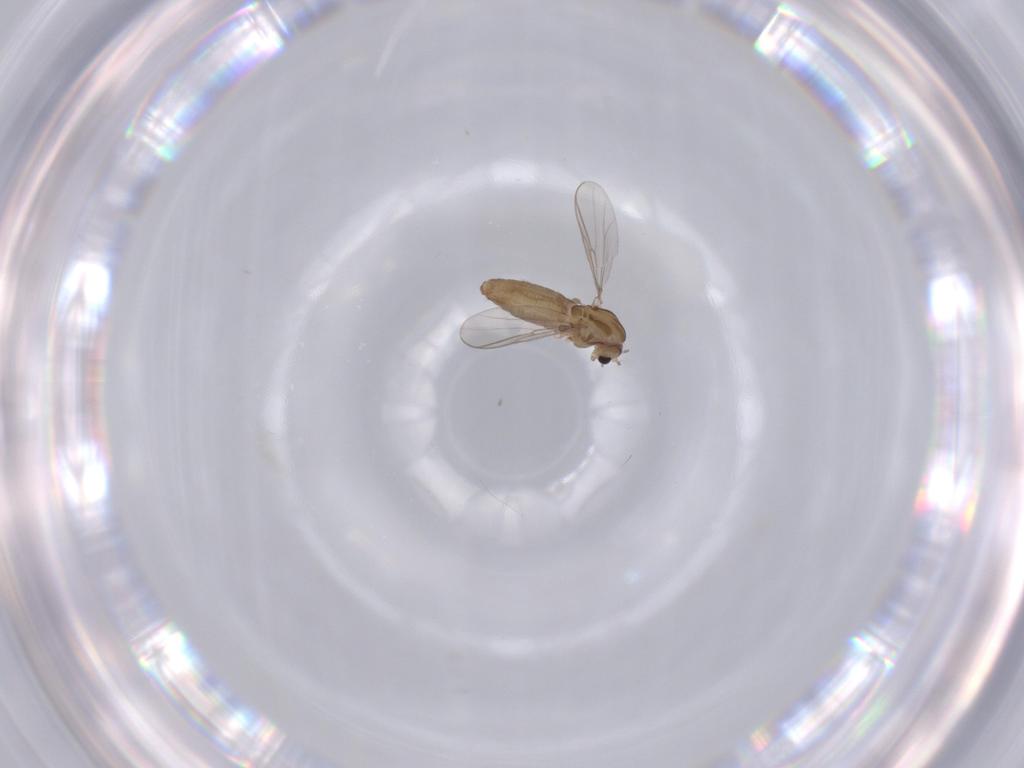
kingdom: Animalia
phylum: Arthropoda
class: Insecta
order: Diptera
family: Chironomidae
